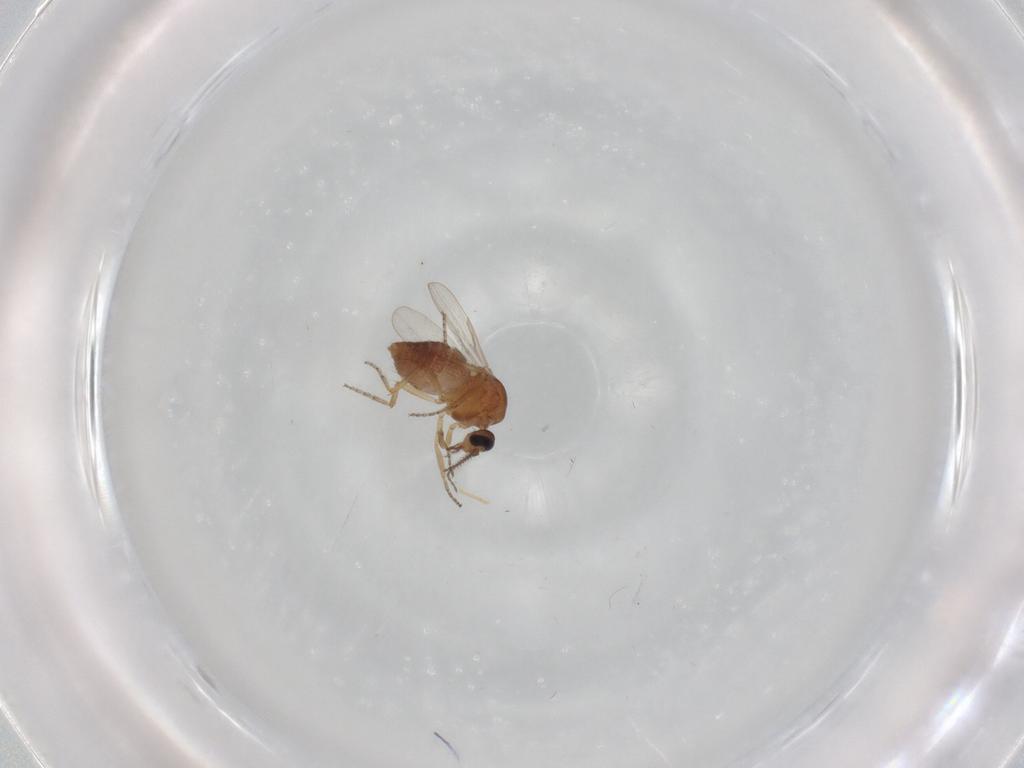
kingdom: Animalia
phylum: Arthropoda
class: Insecta
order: Diptera
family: Ceratopogonidae
